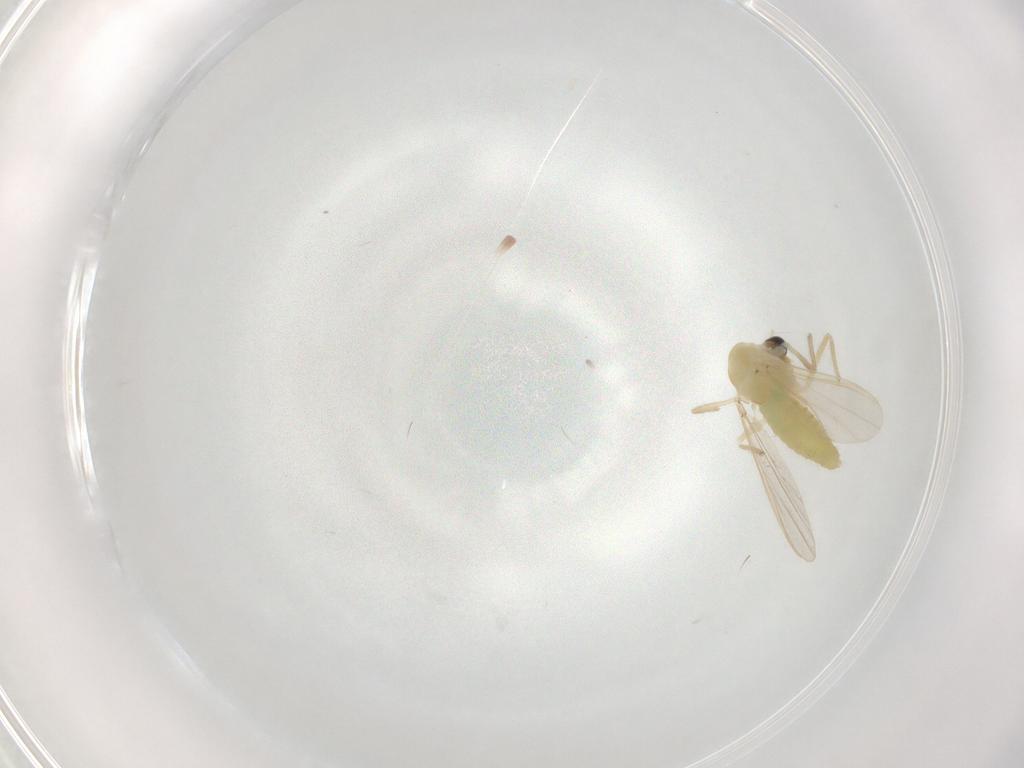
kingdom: Animalia
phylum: Arthropoda
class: Insecta
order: Diptera
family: Chironomidae
